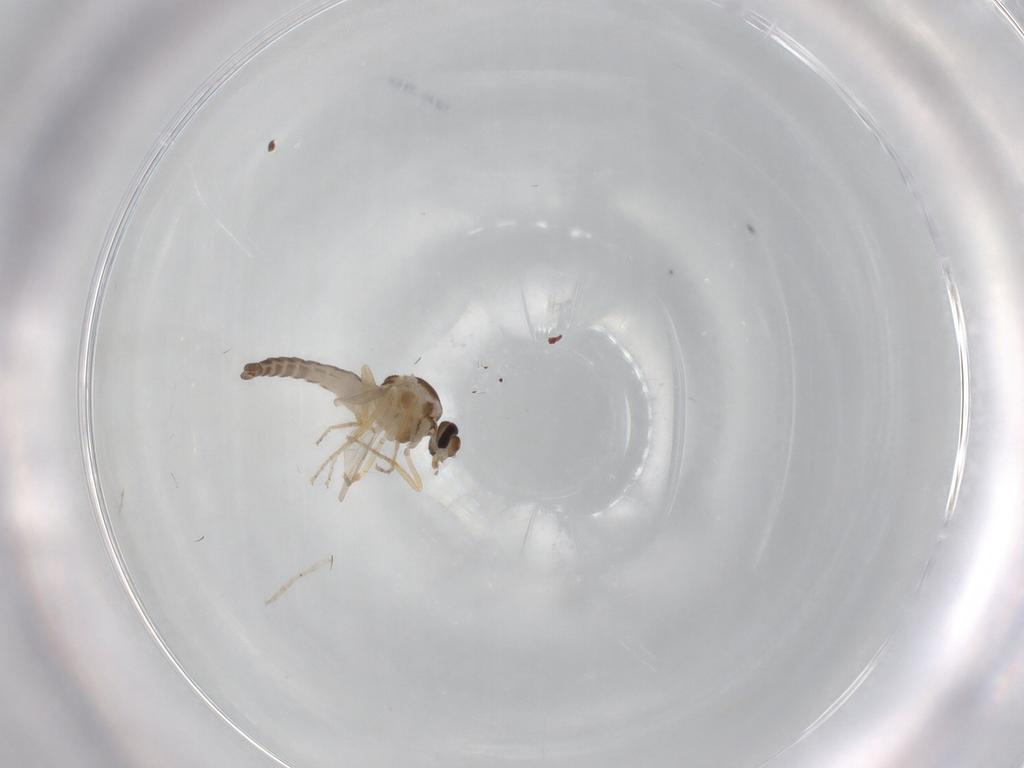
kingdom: Animalia
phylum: Arthropoda
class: Insecta
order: Diptera
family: Ceratopogonidae
